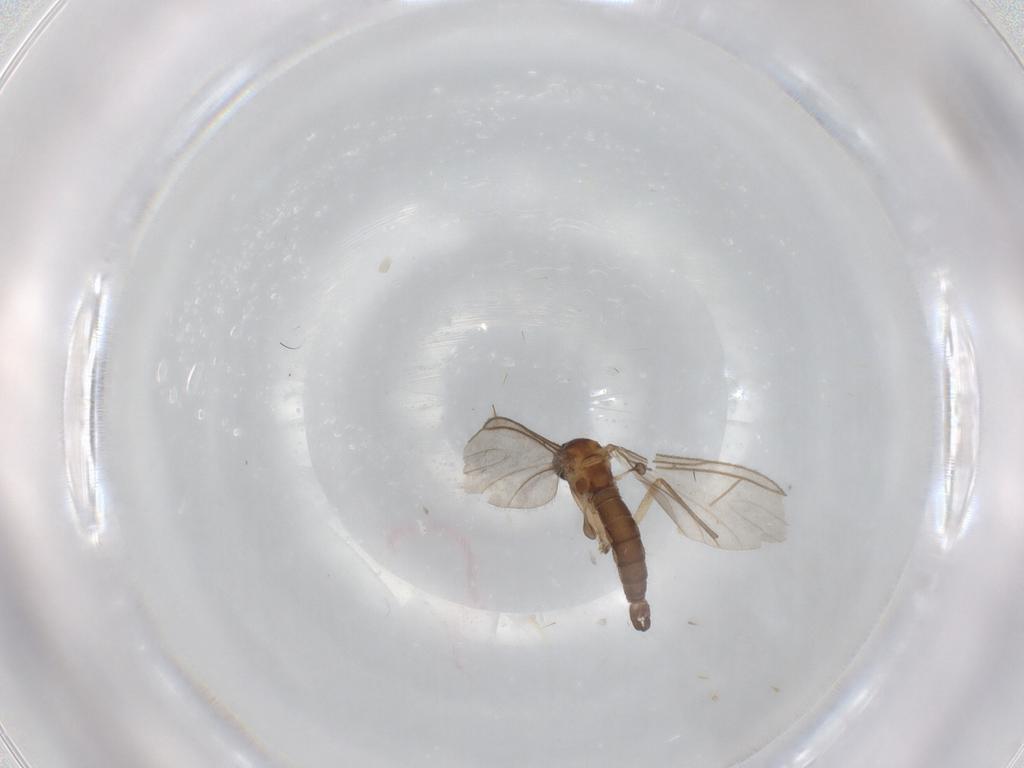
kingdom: Animalia
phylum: Arthropoda
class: Insecta
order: Diptera
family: Sciaridae
